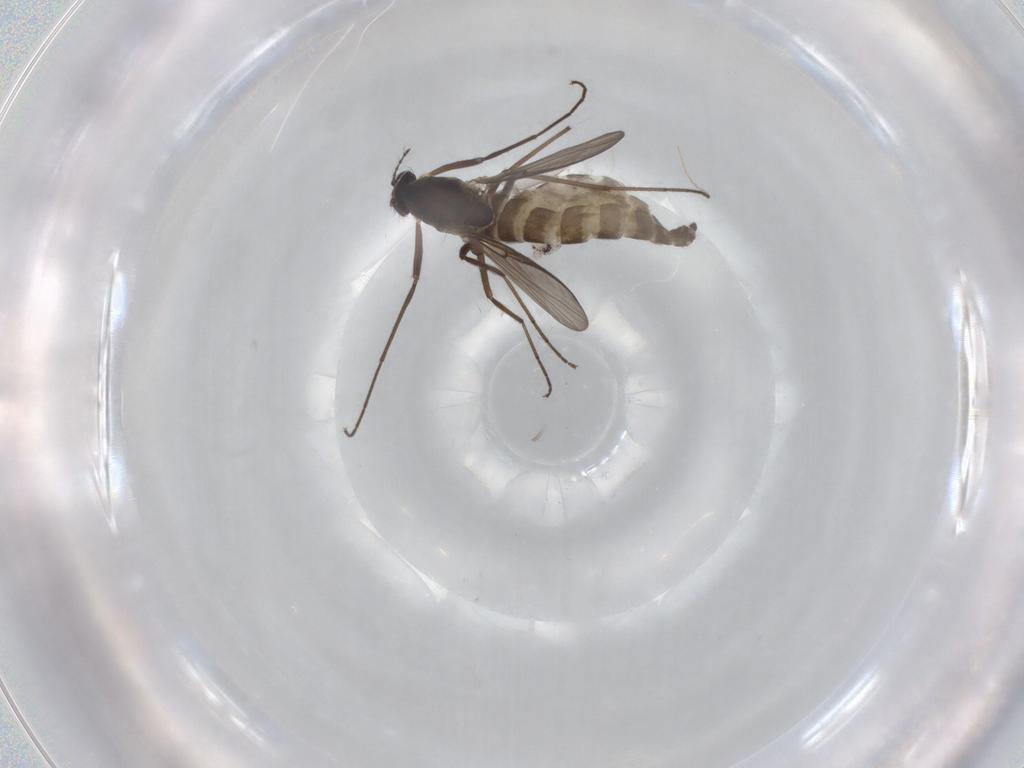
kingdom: Animalia
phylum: Arthropoda
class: Insecta
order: Diptera
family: Chironomidae
